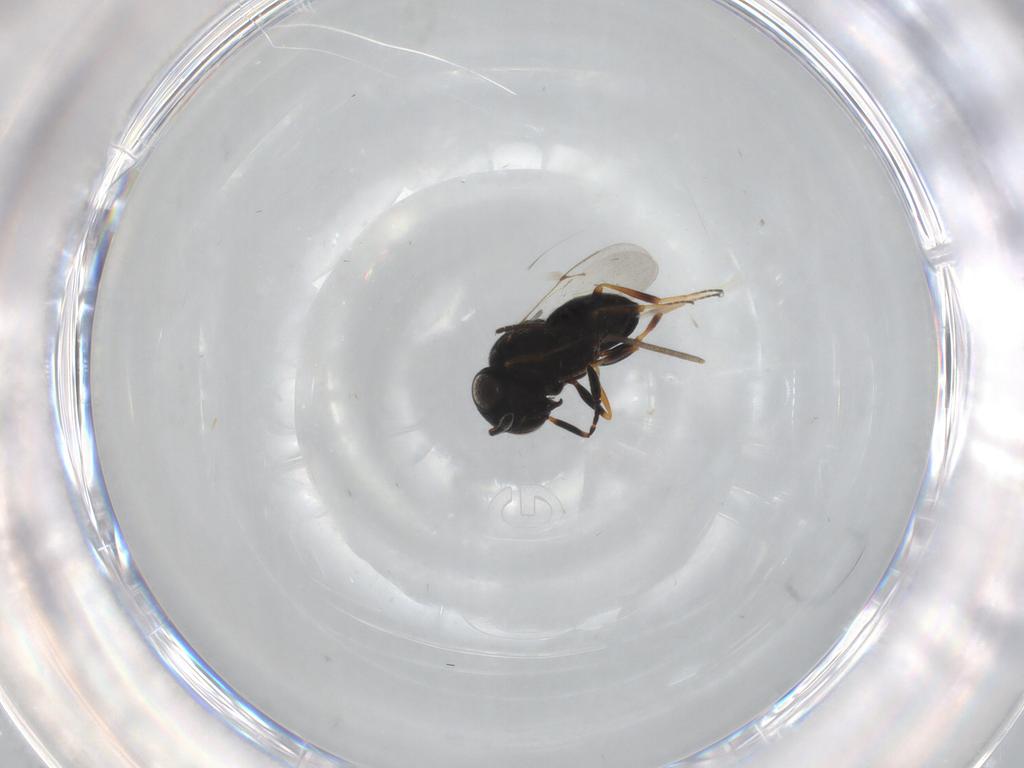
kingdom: Animalia
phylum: Arthropoda
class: Insecta
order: Hymenoptera
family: Scelionidae
